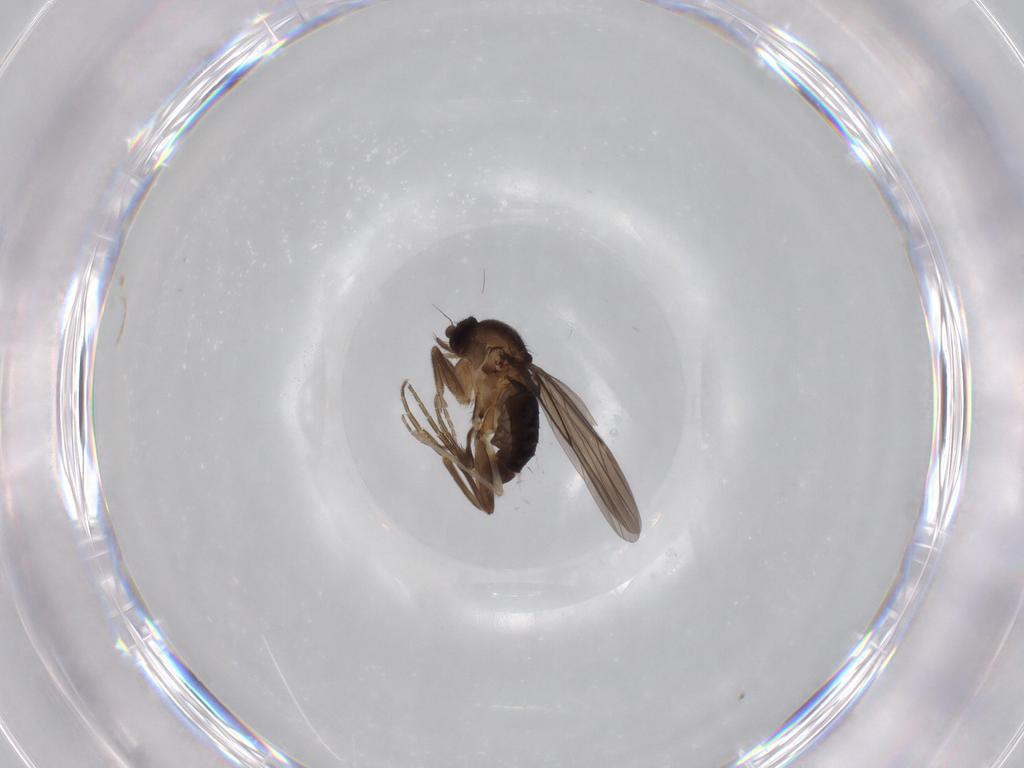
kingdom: Animalia
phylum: Arthropoda
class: Insecta
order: Diptera
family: Chironomidae
